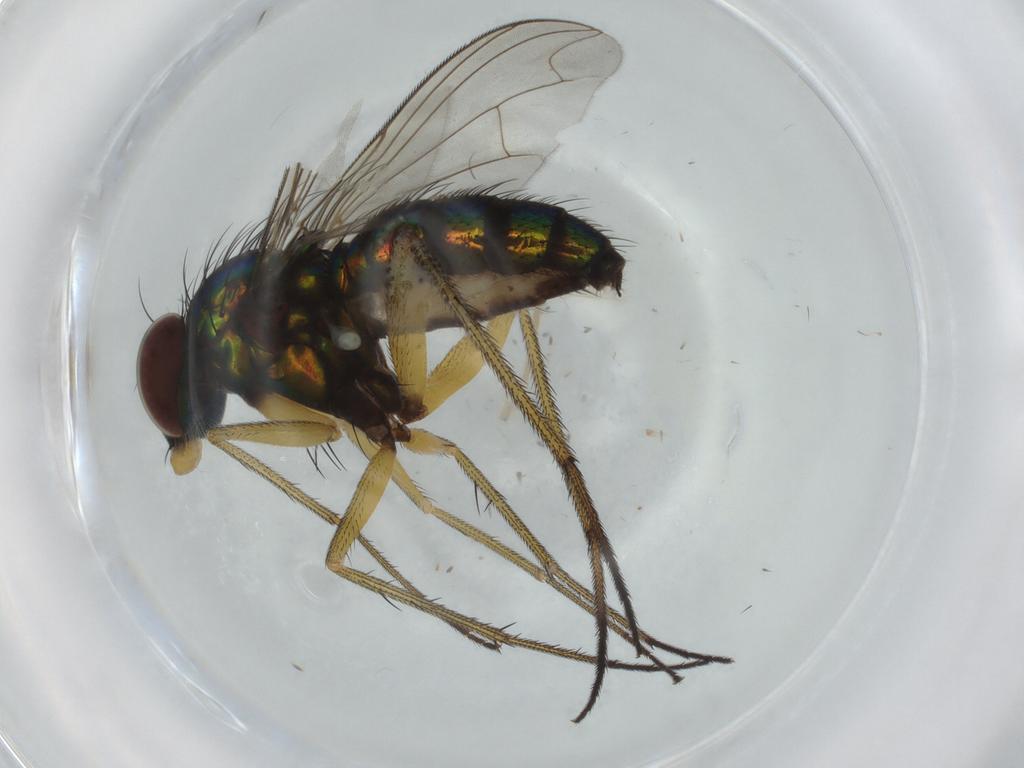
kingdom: Animalia
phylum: Arthropoda
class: Insecta
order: Diptera
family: Dolichopodidae
